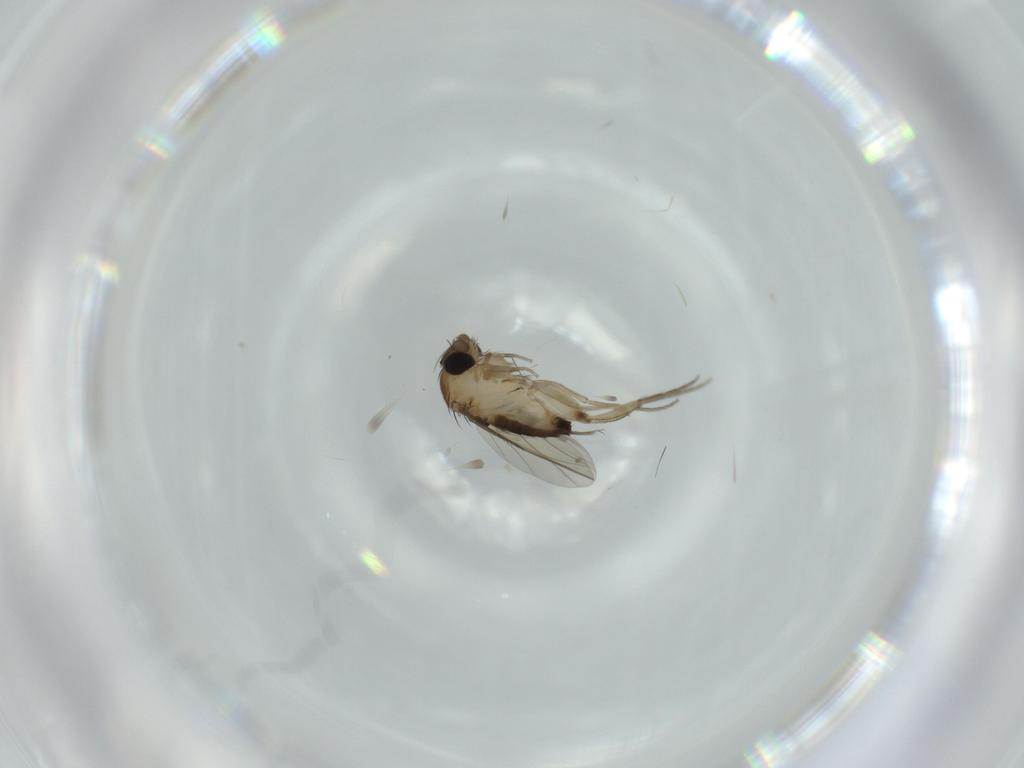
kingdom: Animalia
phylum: Arthropoda
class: Insecta
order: Diptera
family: Phoridae
